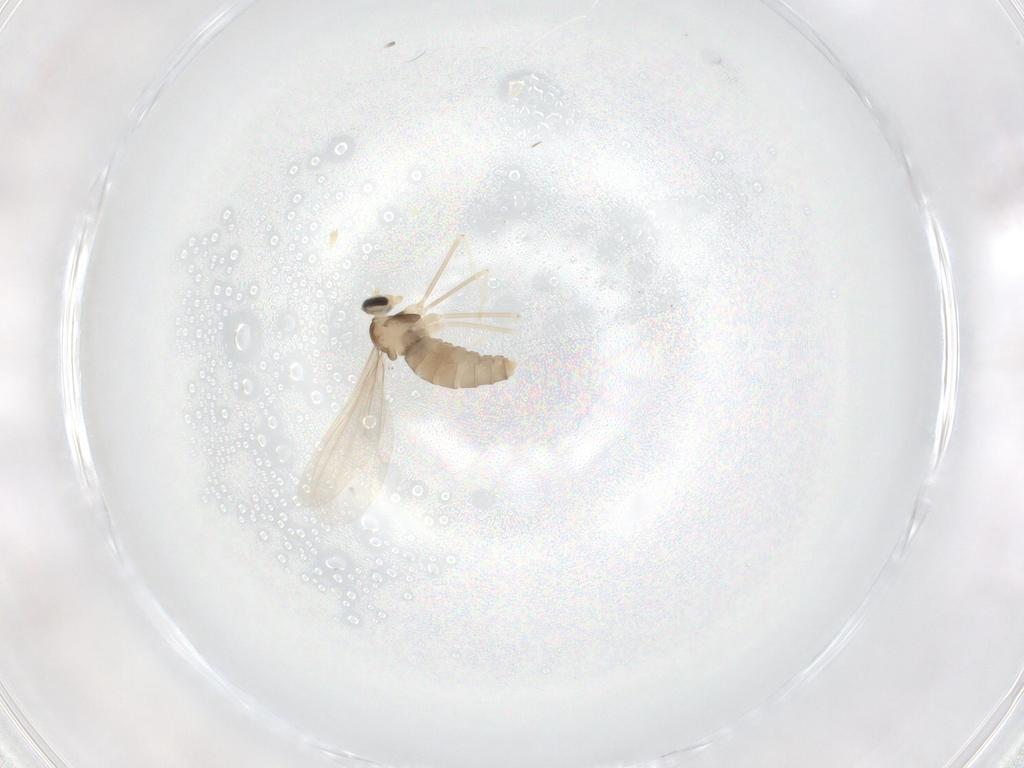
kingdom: Animalia
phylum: Arthropoda
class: Insecta
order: Diptera
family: Cecidomyiidae
